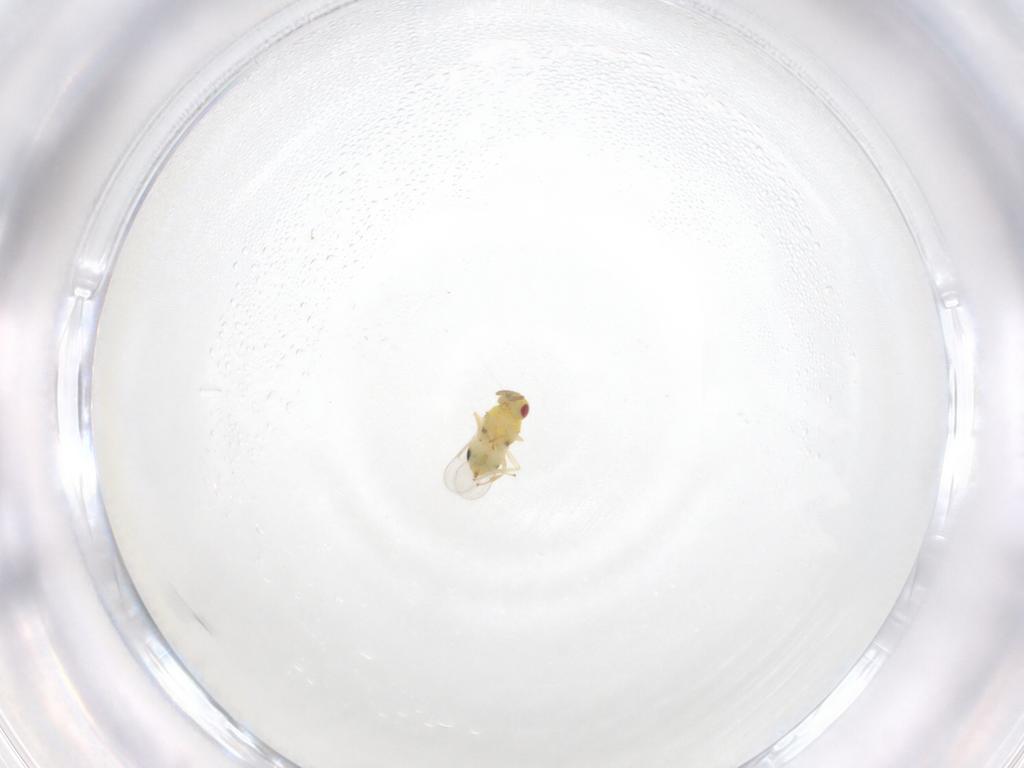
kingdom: Animalia
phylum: Arthropoda
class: Insecta
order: Hymenoptera
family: Aphelinidae
